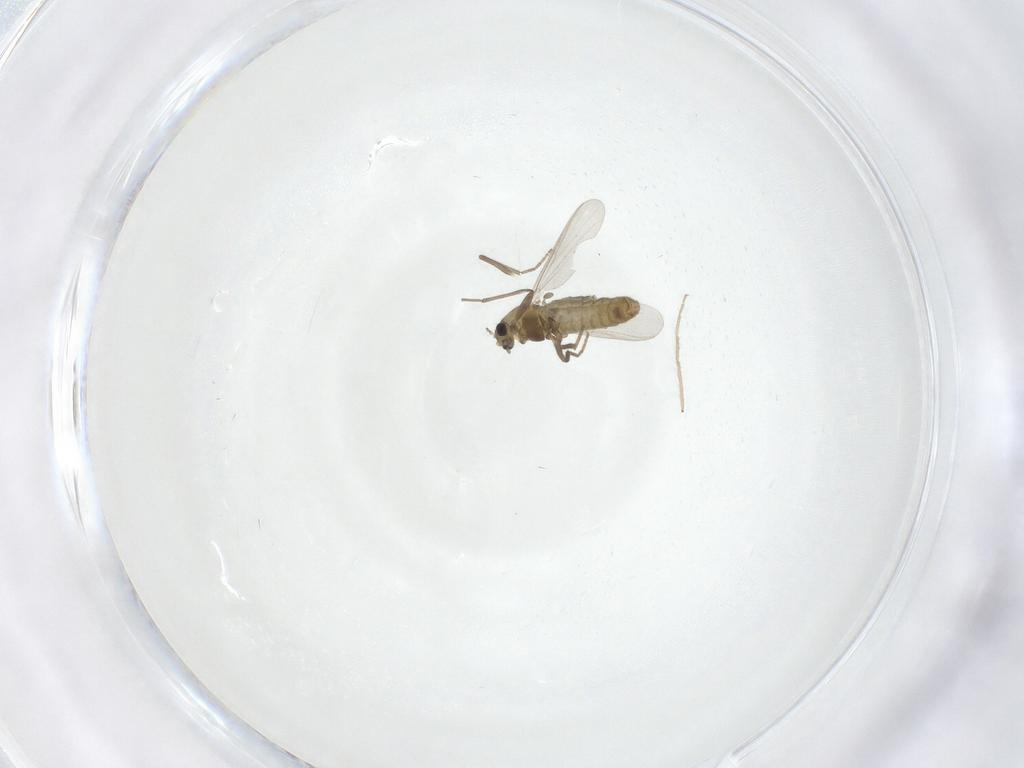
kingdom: Animalia
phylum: Arthropoda
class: Insecta
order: Diptera
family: Chironomidae
